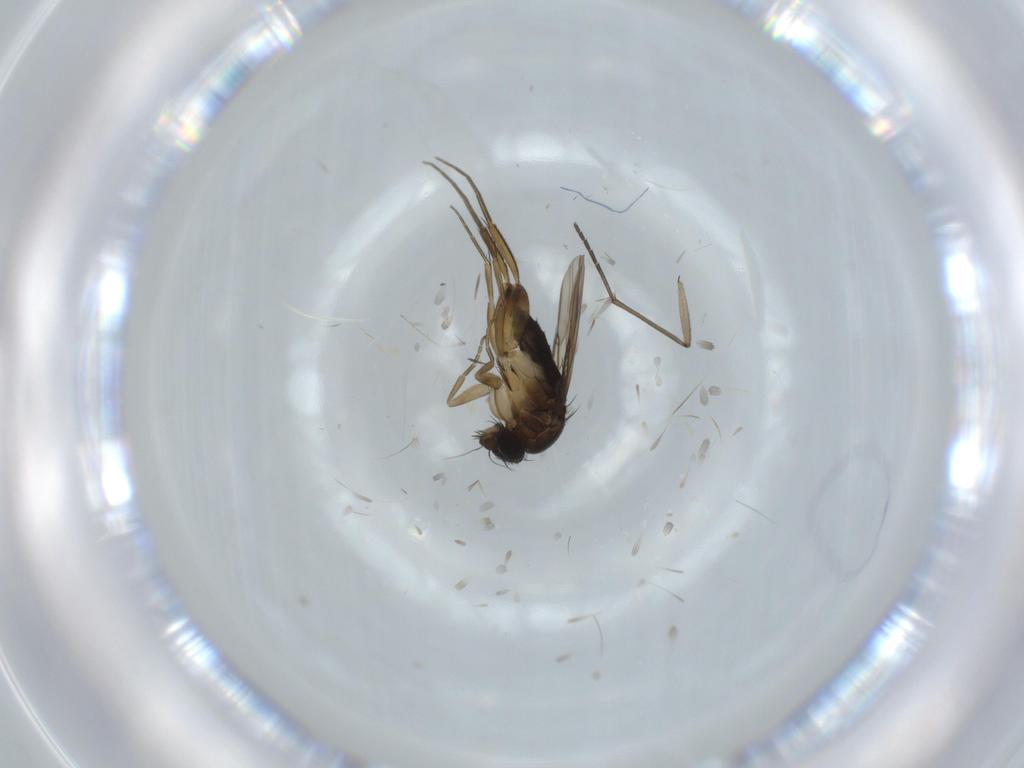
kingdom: Animalia
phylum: Arthropoda
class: Insecta
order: Diptera
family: Phoridae
